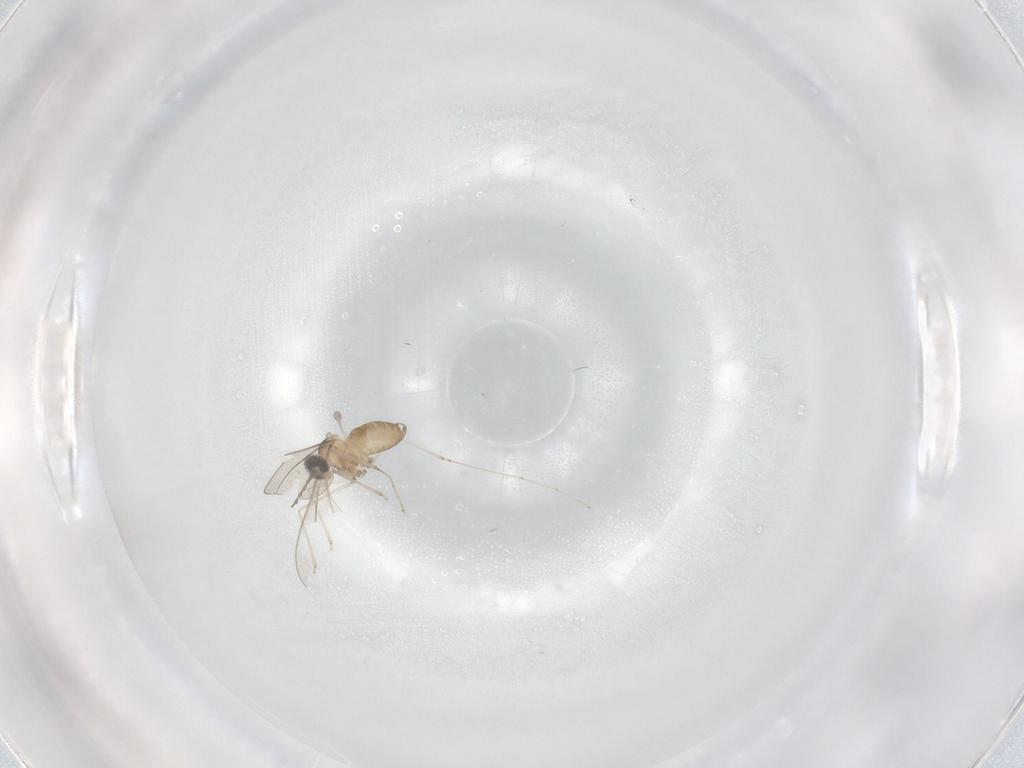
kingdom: Animalia
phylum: Arthropoda
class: Insecta
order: Diptera
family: Cecidomyiidae
